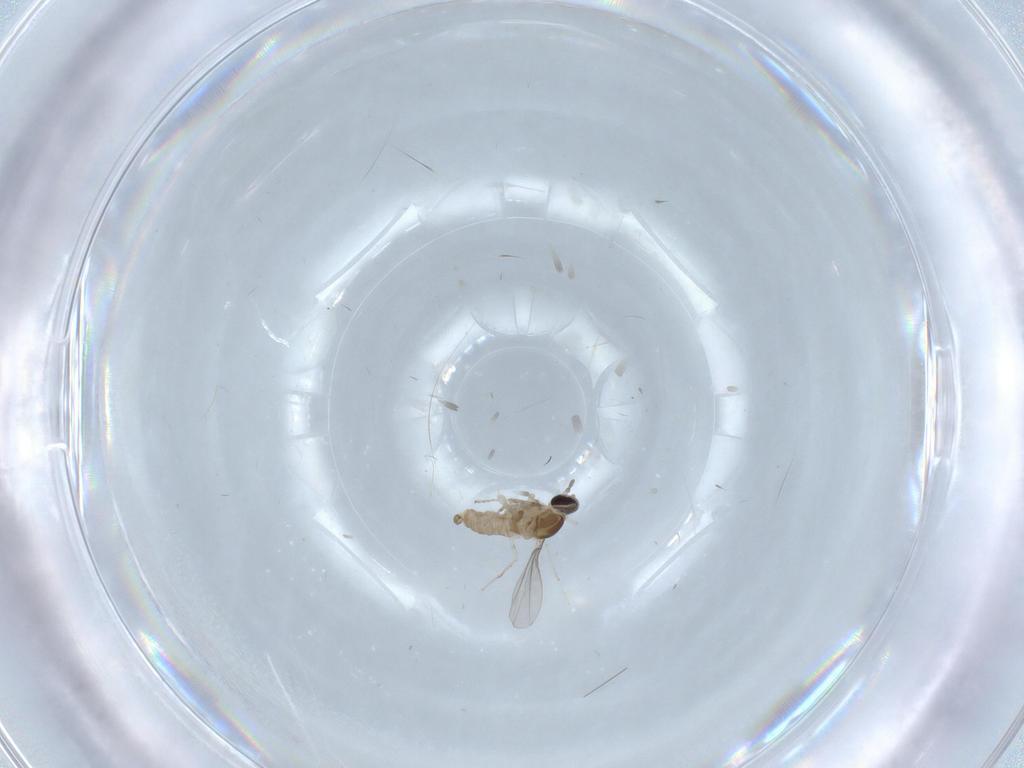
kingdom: Animalia
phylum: Arthropoda
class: Insecta
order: Diptera
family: Cecidomyiidae
